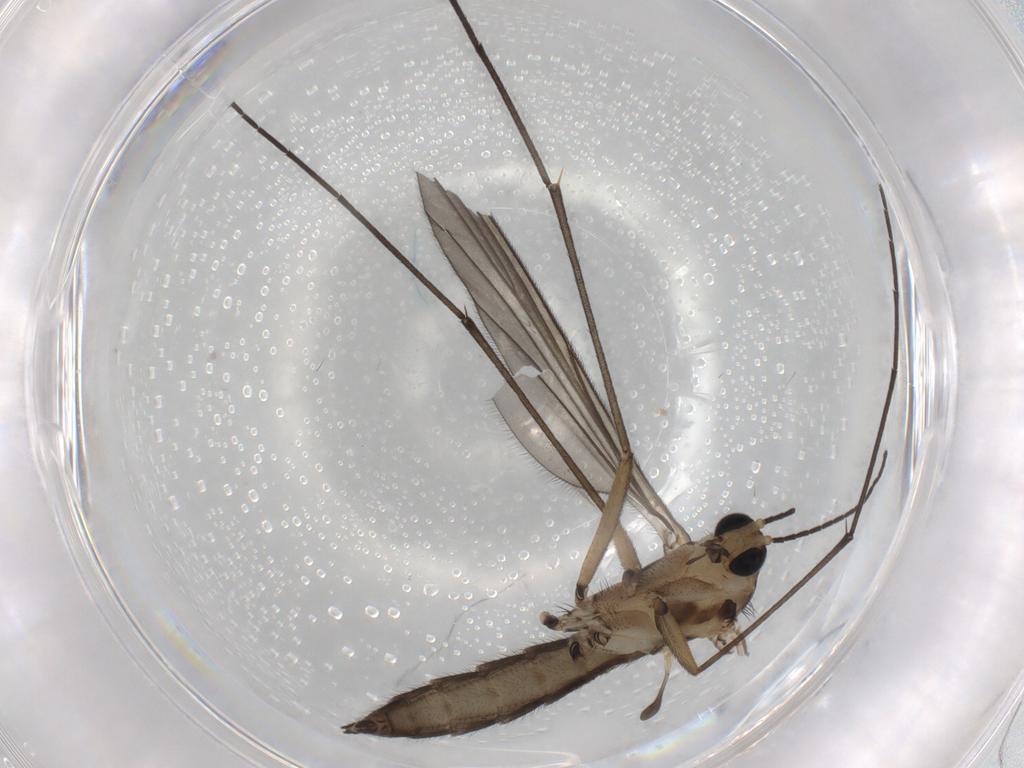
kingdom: Animalia
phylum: Arthropoda
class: Insecta
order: Diptera
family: Sciaridae
